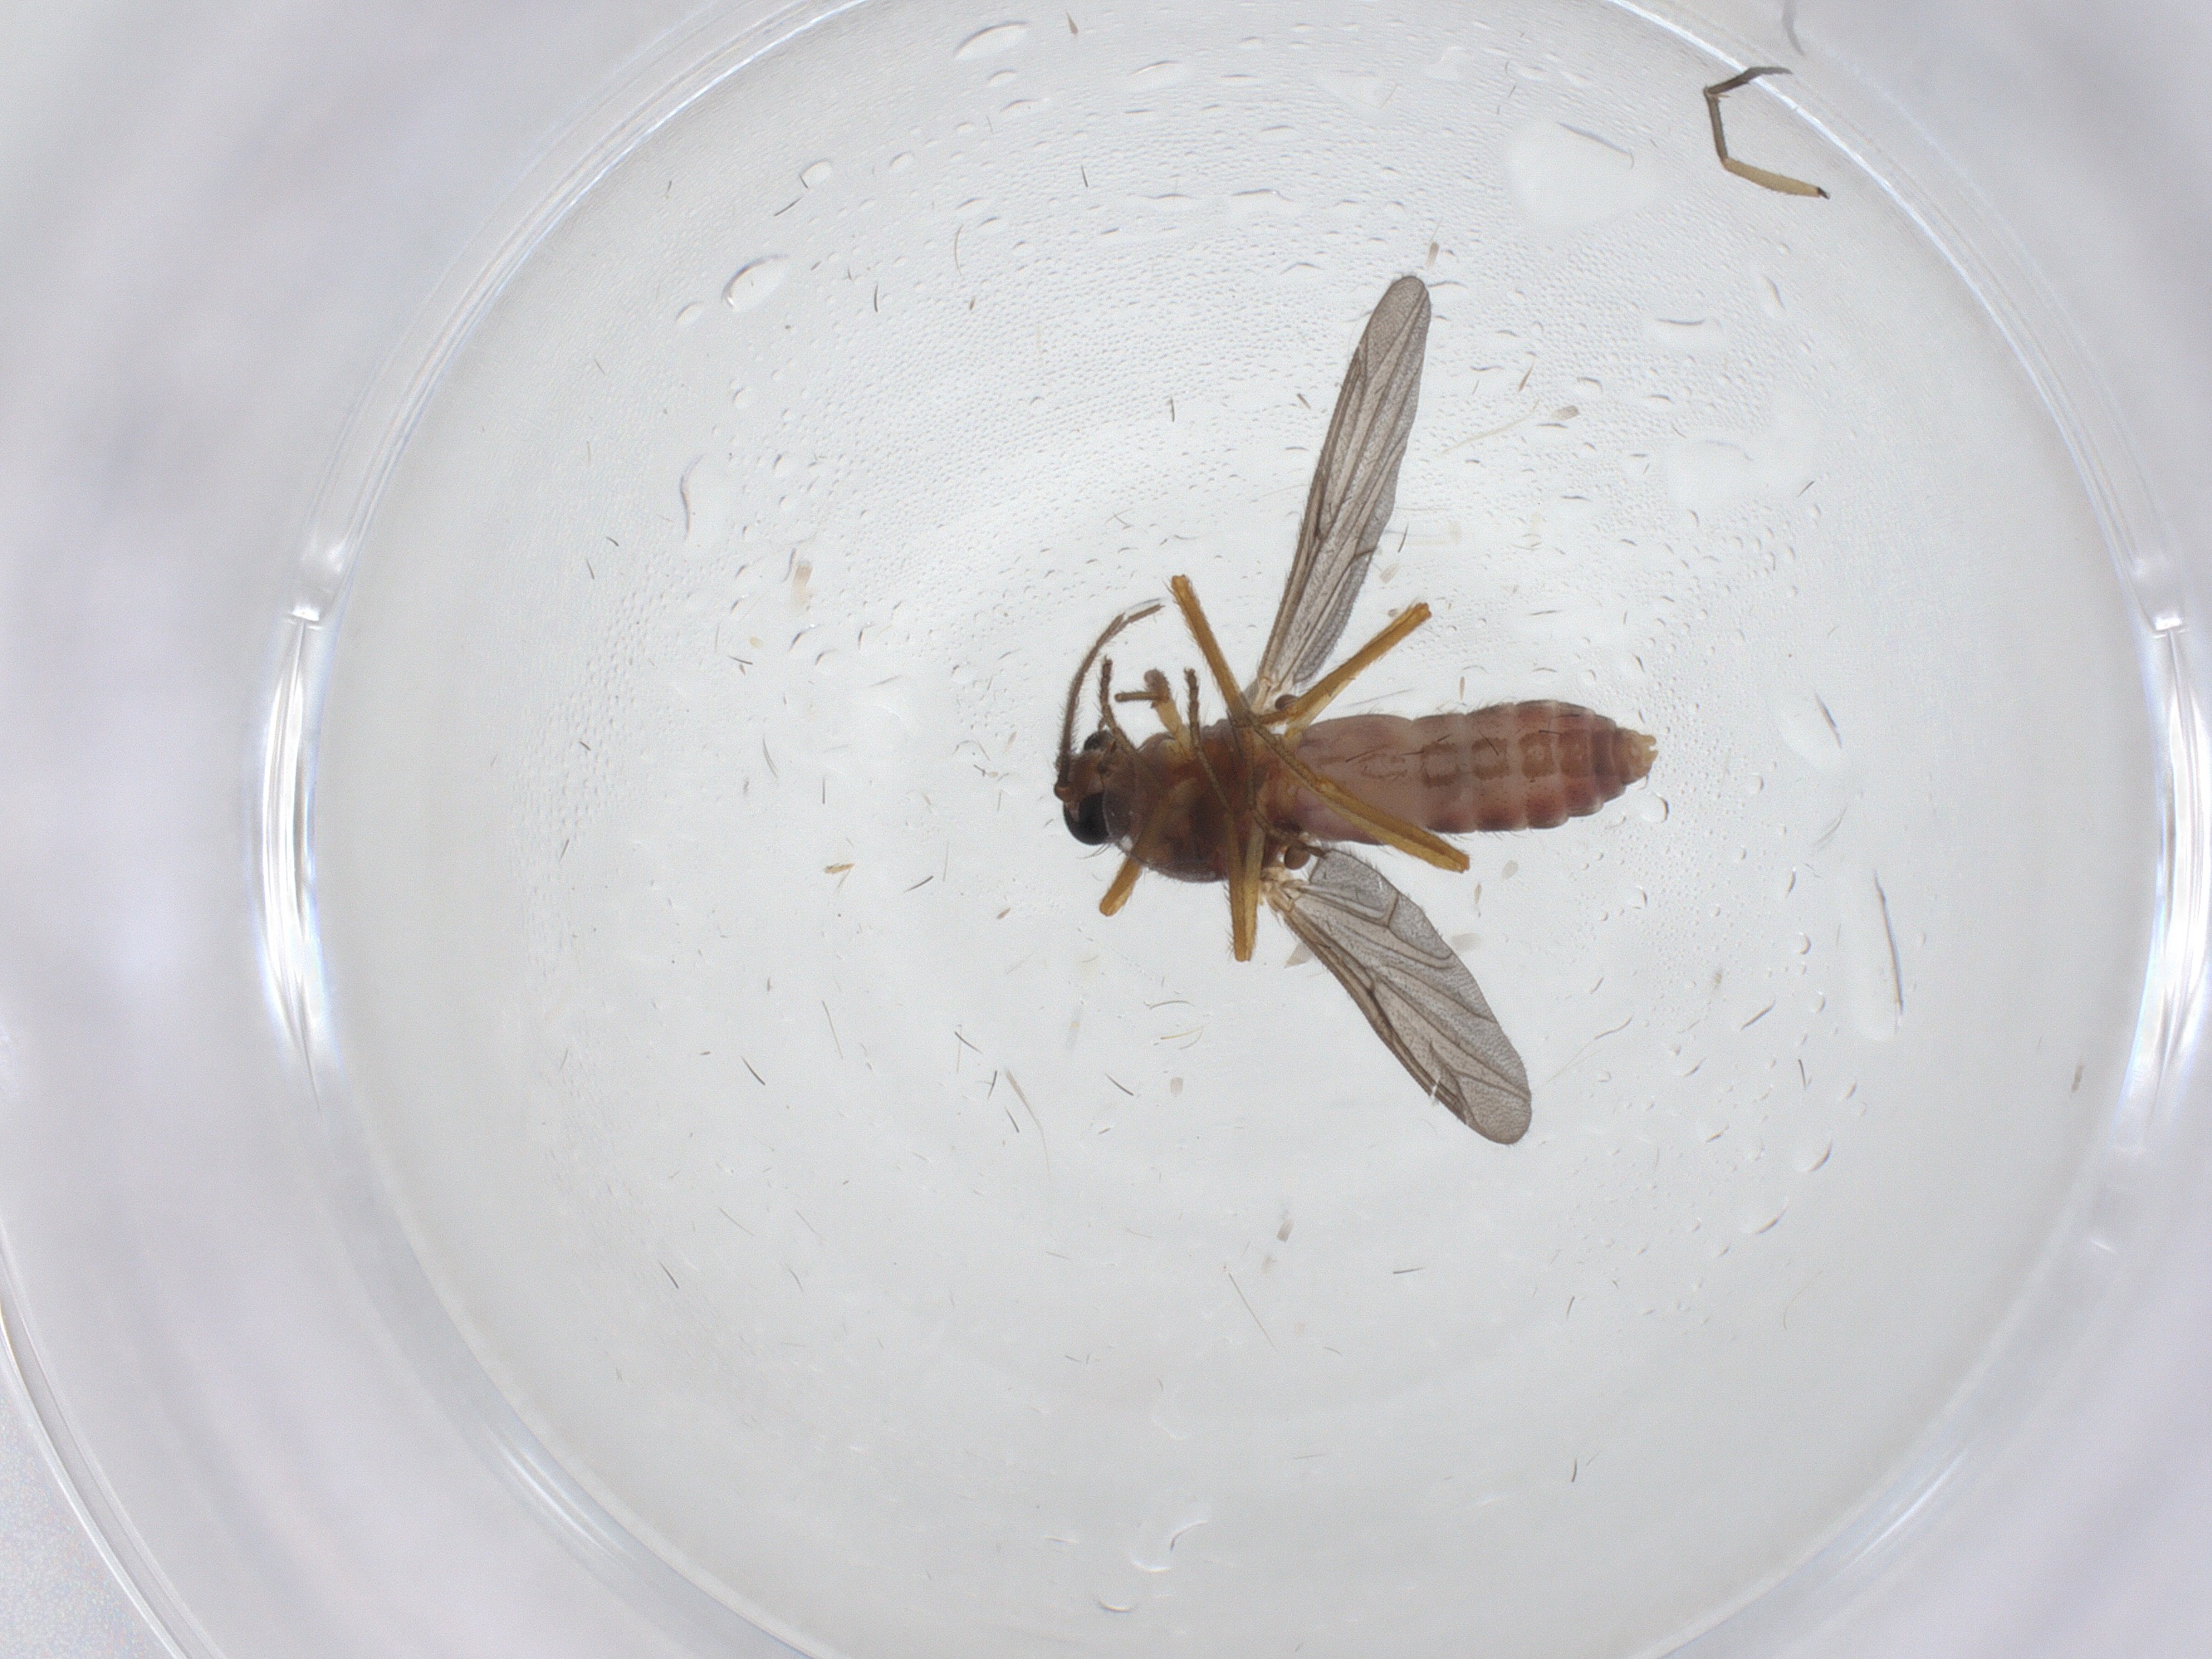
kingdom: Animalia
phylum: Arthropoda
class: Insecta
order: Diptera
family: Ceratopogonidae
